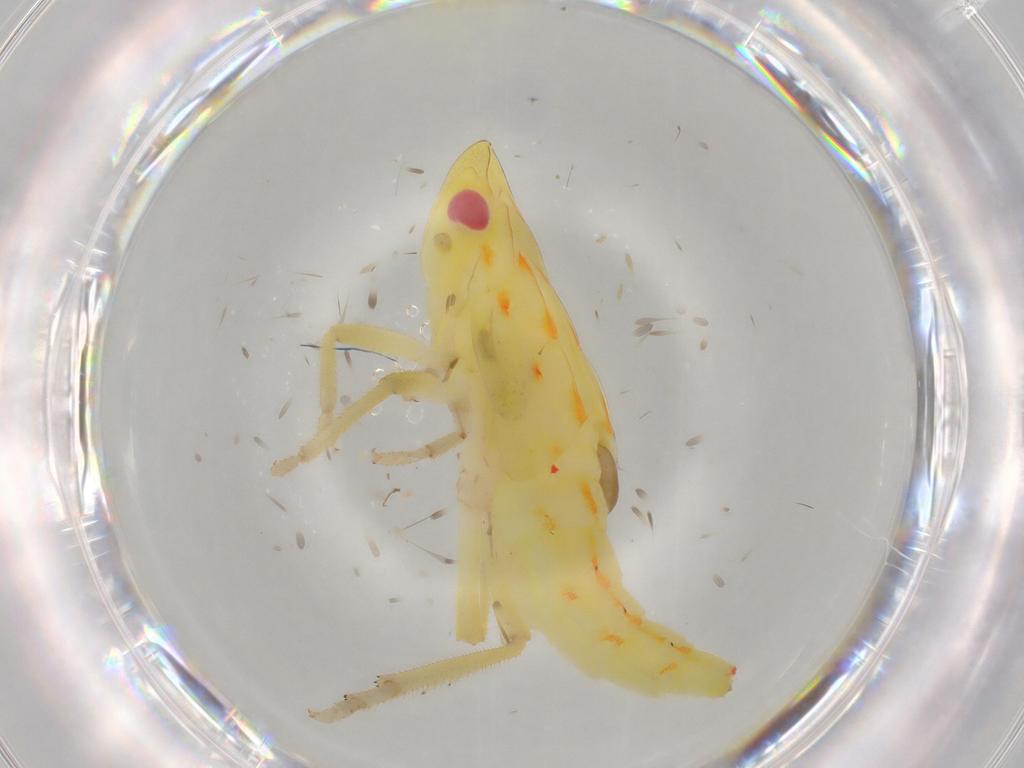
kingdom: Animalia
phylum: Arthropoda
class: Insecta
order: Hemiptera
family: Tropiduchidae
